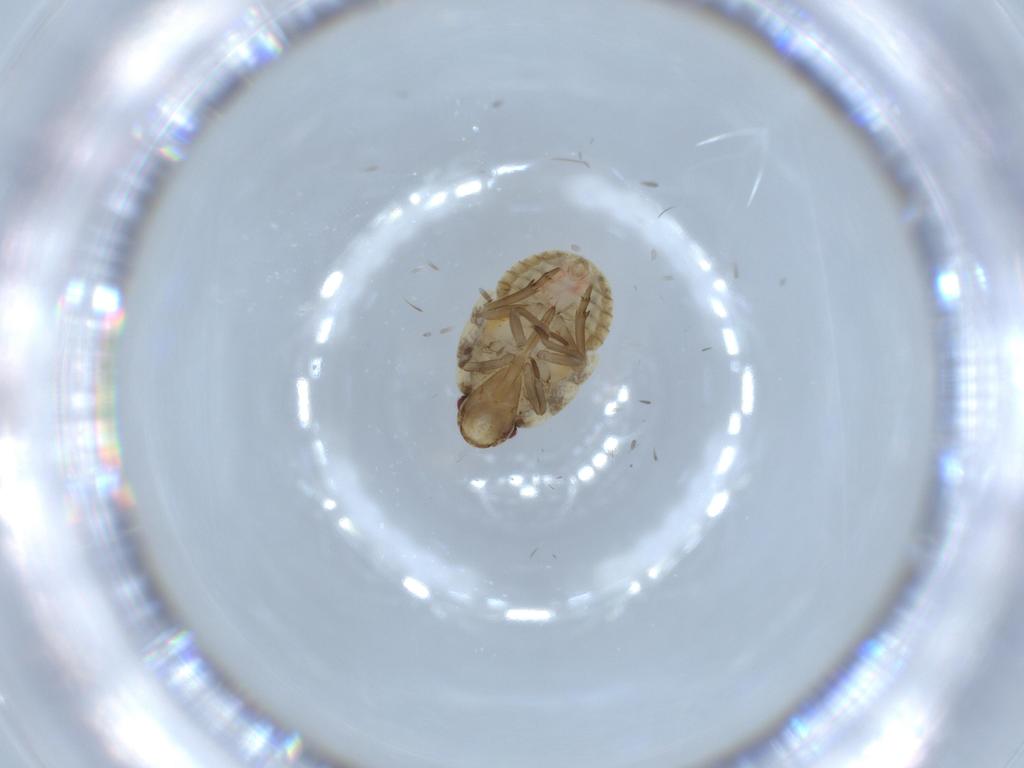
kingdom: Animalia
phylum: Arthropoda
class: Insecta
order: Hemiptera
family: Flatidae
